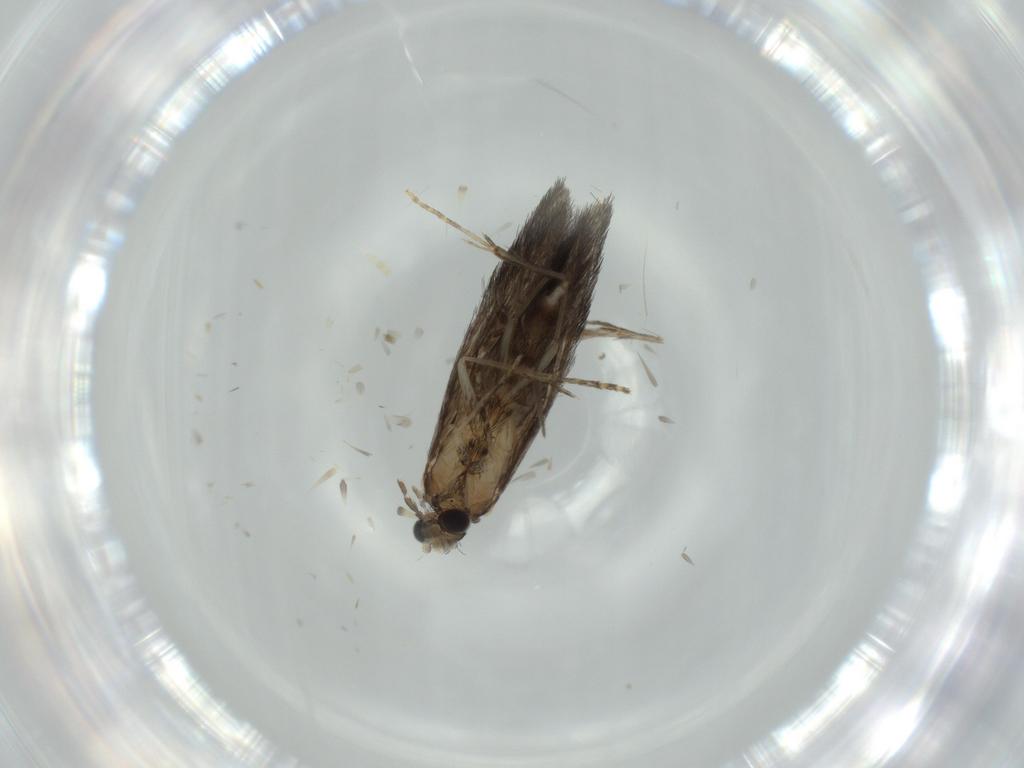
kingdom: Animalia
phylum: Arthropoda
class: Insecta
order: Trichoptera
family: Hydroptilidae
